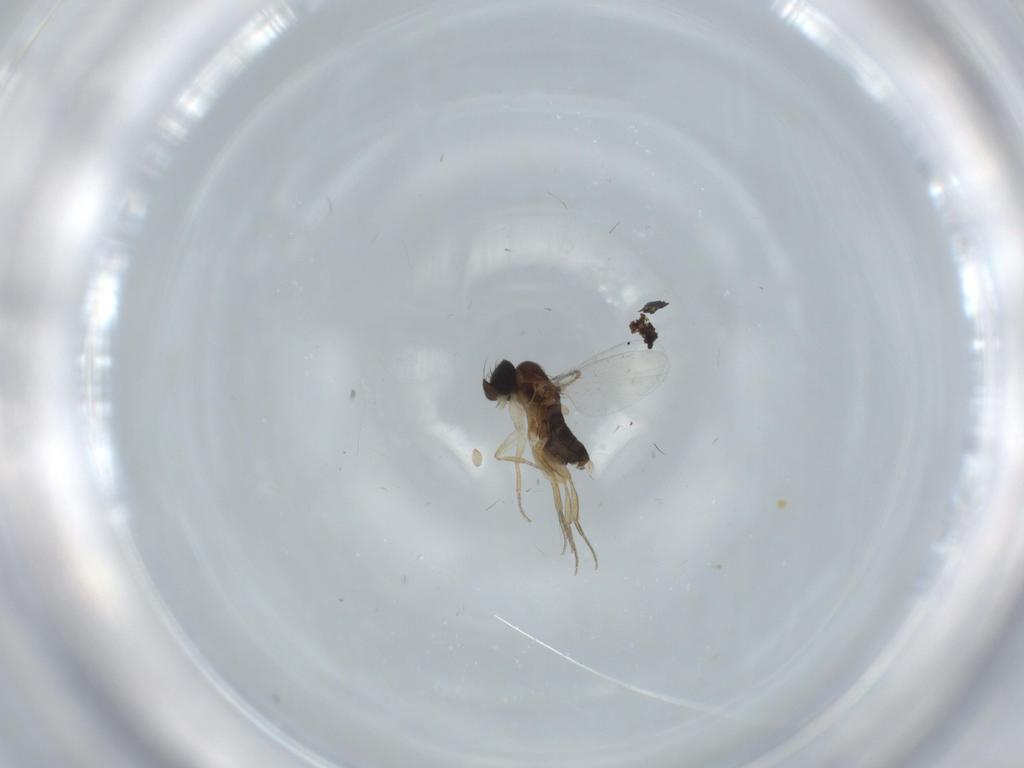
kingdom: Animalia
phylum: Arthropoda
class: Insecta
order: Diptera
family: Phoridae
